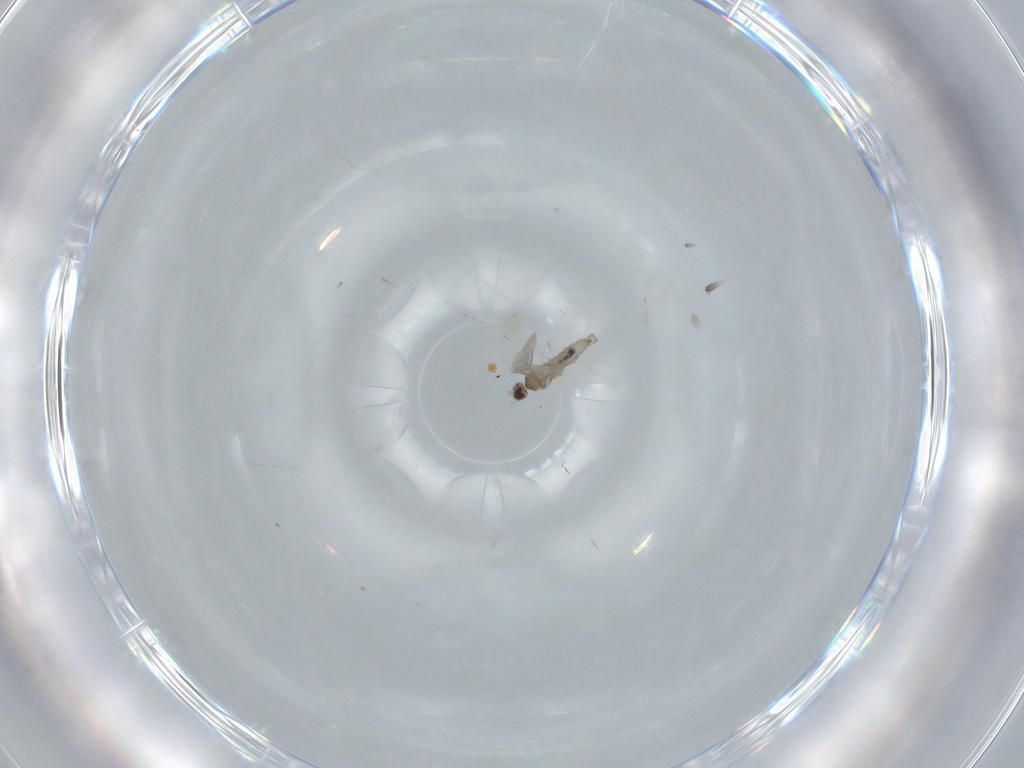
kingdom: Animalia
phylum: Arthropoda
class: Insecta
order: Diptera
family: Cecidomyiidae
